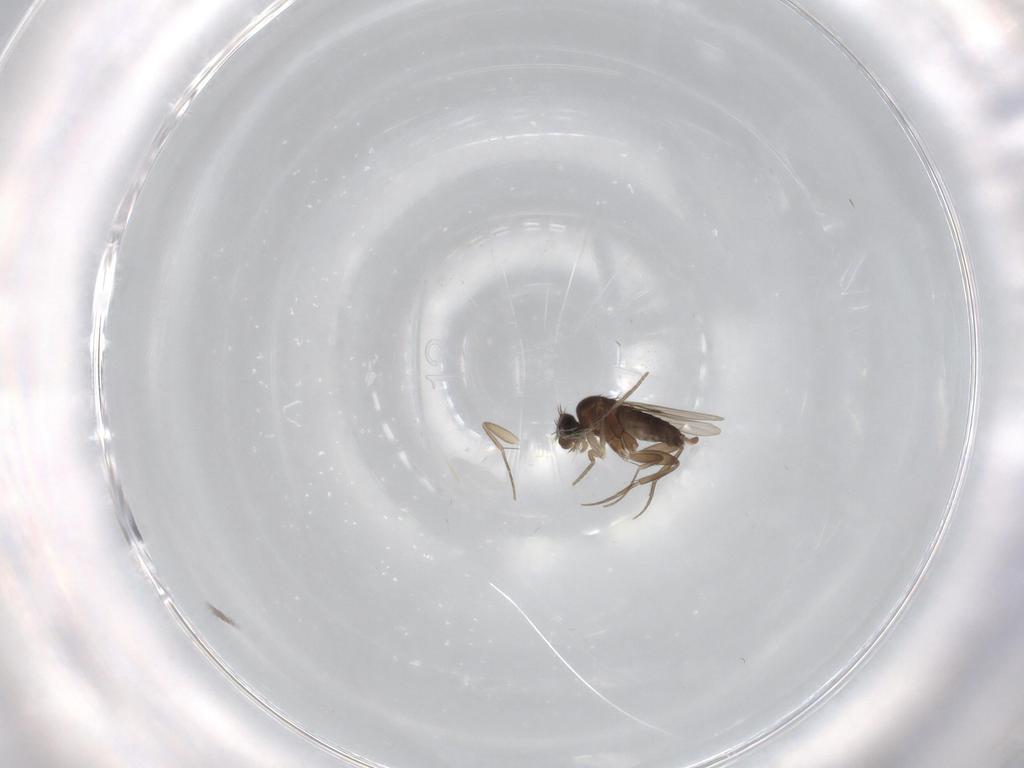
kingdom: Animalia
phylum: Arthropoda
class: Insecta
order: Diptera
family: Phoridae
